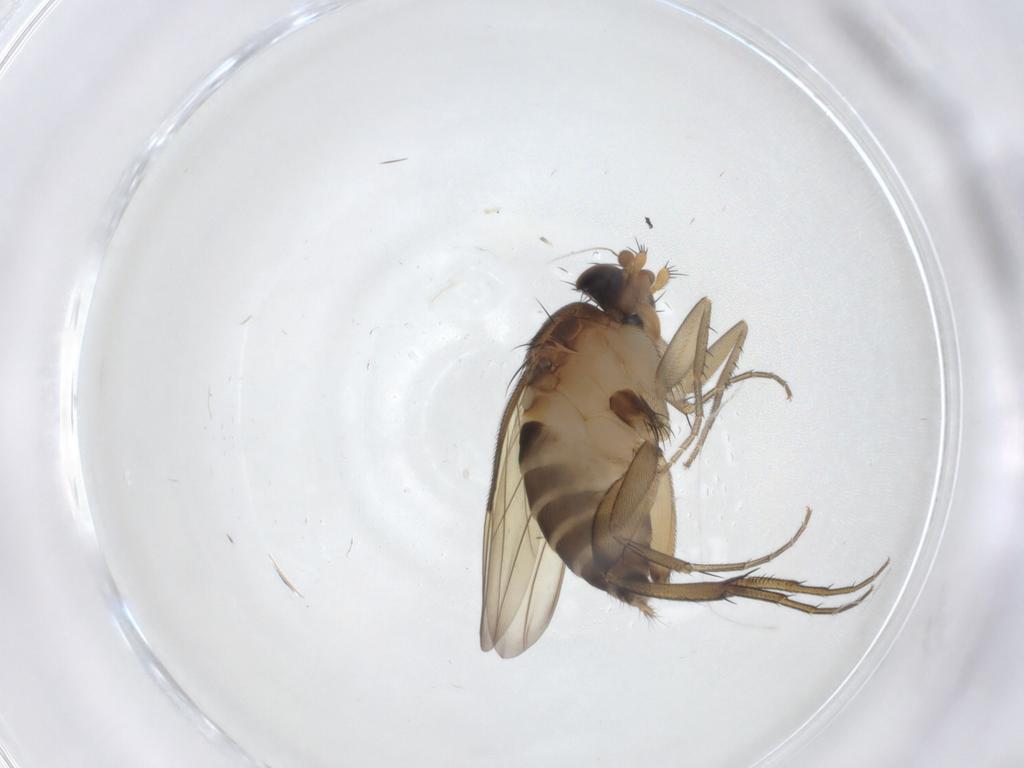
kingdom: Animalia
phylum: Arthropoda
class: Insecta
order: Diptera
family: Phoridae
